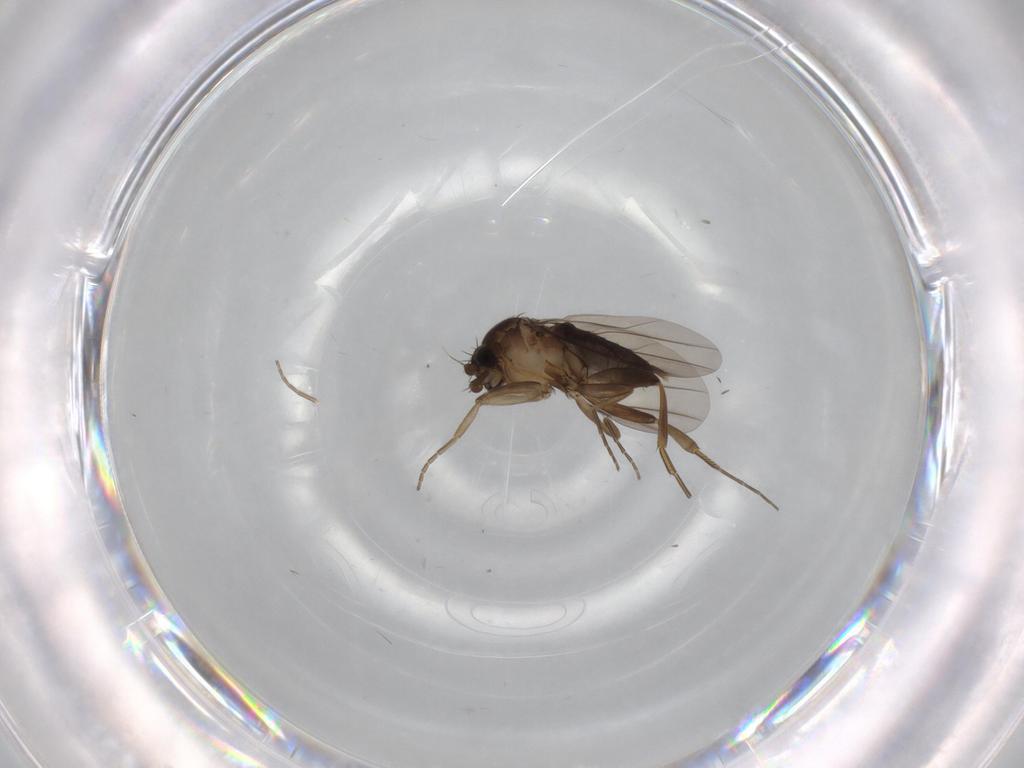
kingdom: Animalia
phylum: Arthropoda
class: Insecta
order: Diptera
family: Phoridae
